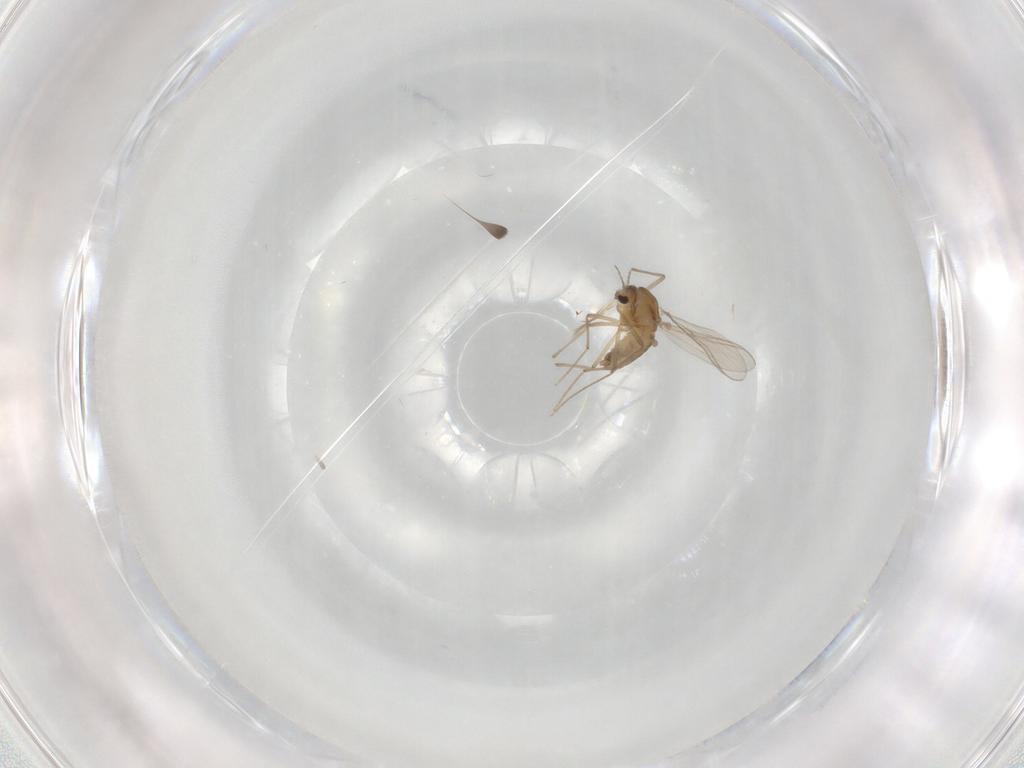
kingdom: Animalia
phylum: Arthropoda
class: Insecta
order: Diptera
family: Chironomidae
